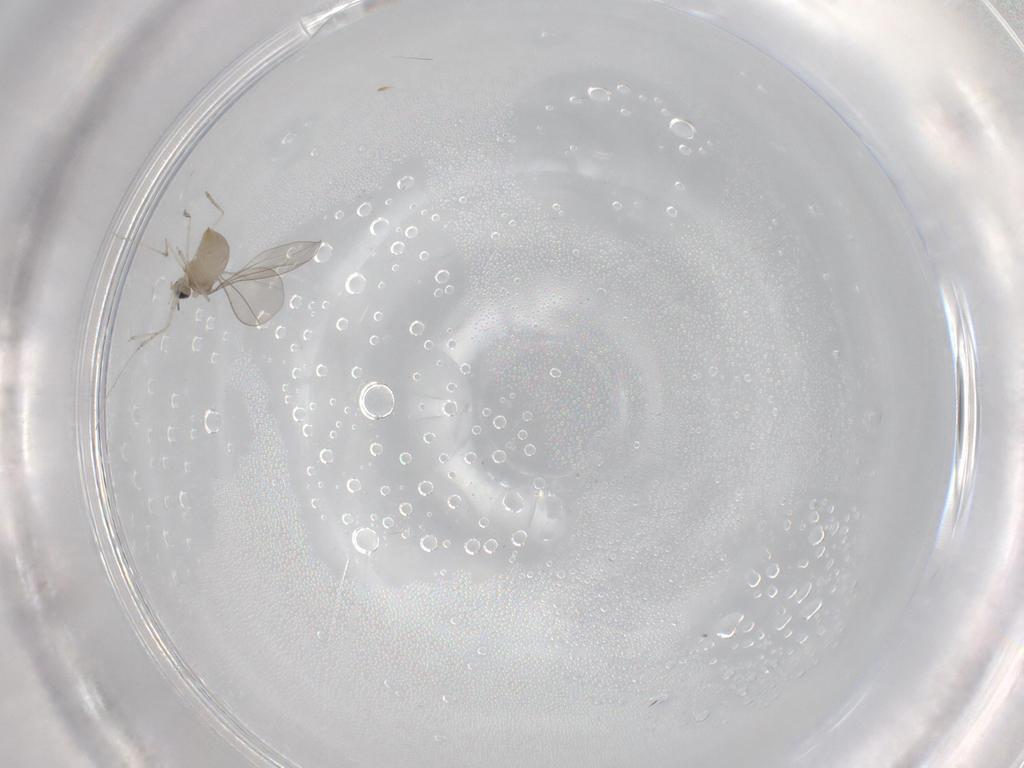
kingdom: Animalia
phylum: Arthropoda
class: Insecta
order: Diptera
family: Cecidomyiidae
